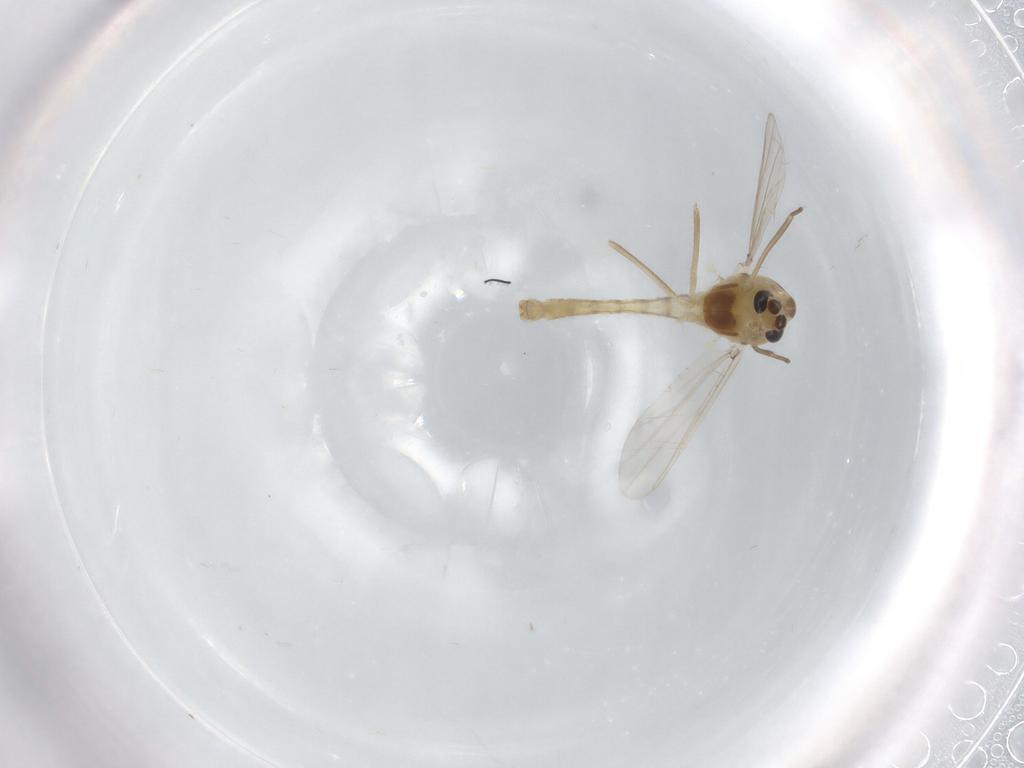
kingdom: Animalia
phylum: Arthropoda
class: Insecta
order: Diptera
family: Chironomidae
